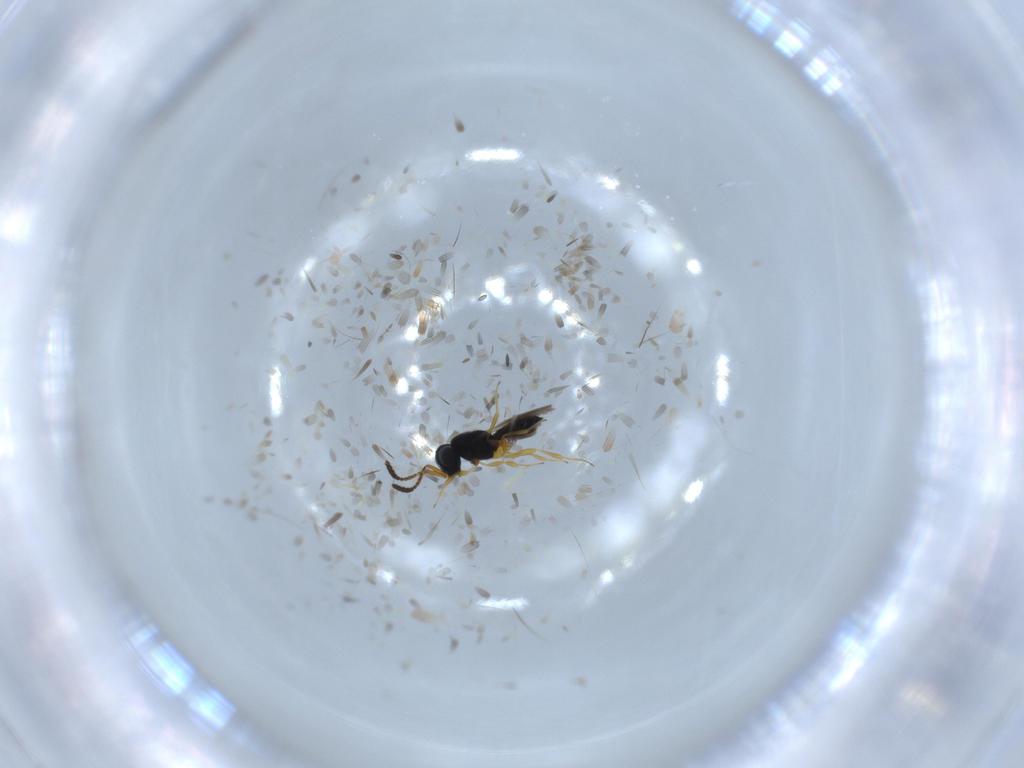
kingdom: Animalia
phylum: Arthropoda
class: Insecta
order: Hymenoptera
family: Scelionidae
